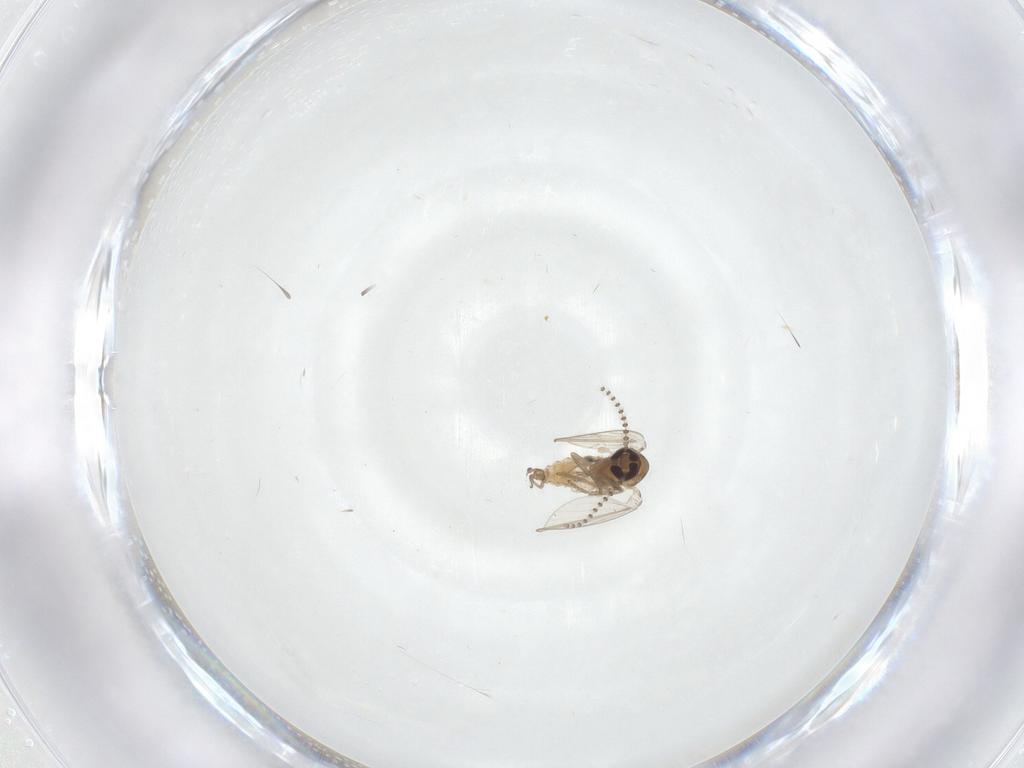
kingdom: Animalia
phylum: Arthropoda
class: Insecta
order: Diptera
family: Psychodidae
